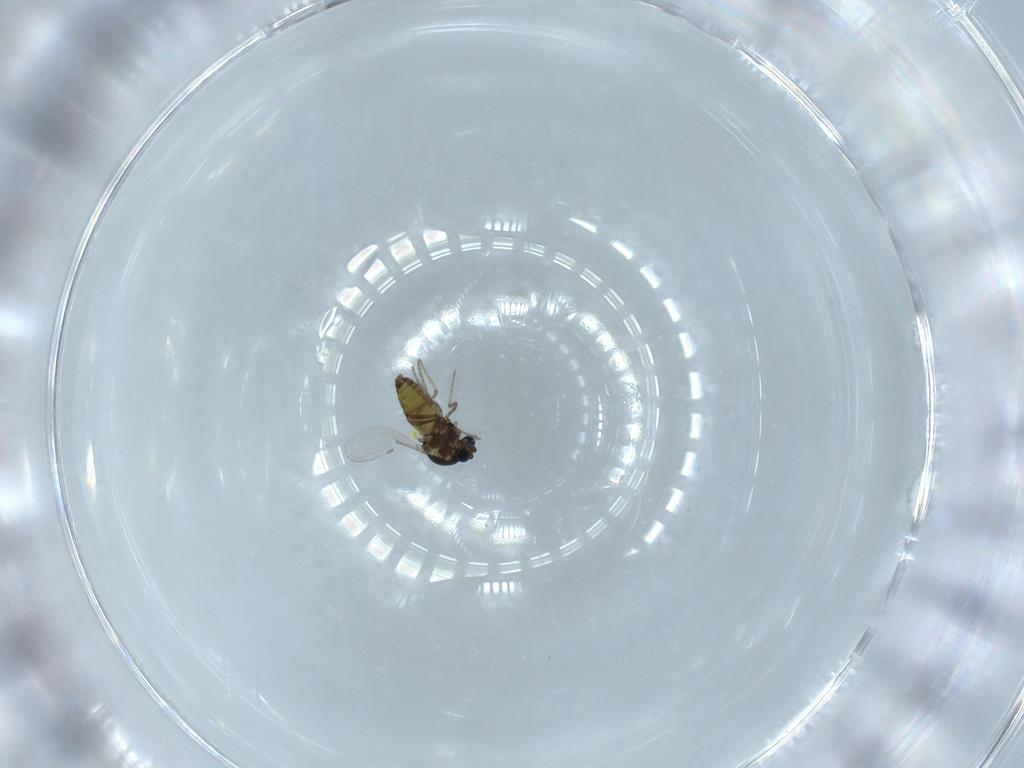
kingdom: Animalia
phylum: Arthropoda
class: Insecta
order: Diptera
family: Ceratopogonidae
